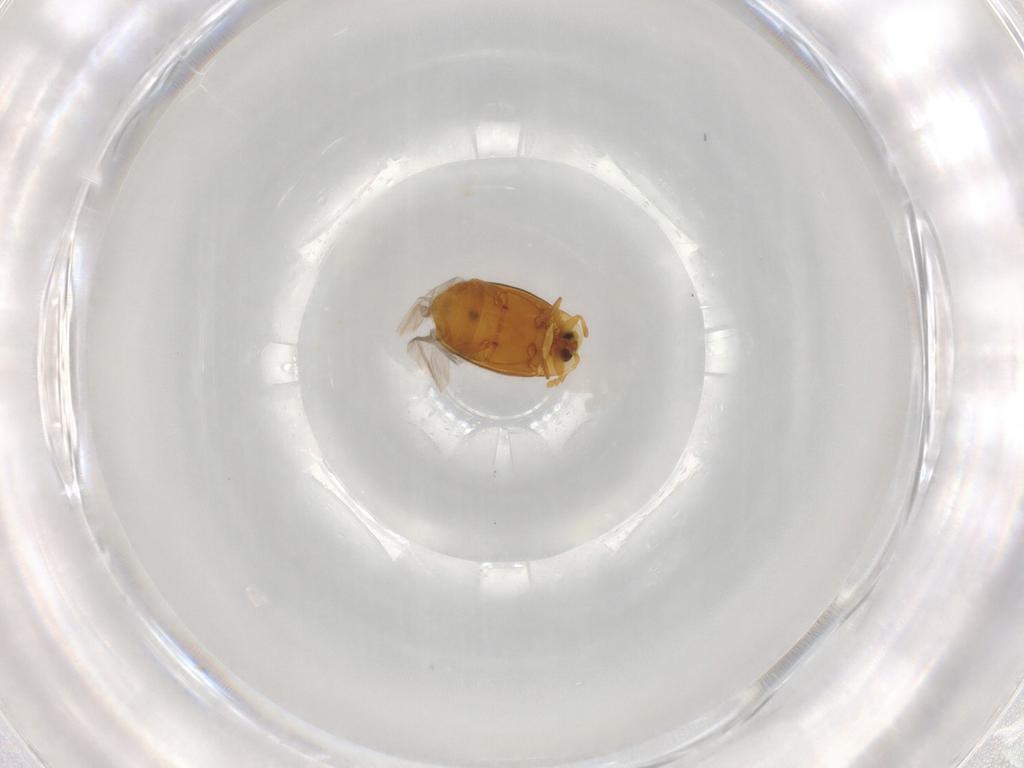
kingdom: Animalia
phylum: Arthropoda
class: Insecta
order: Coleoptera
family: Corylophidae
